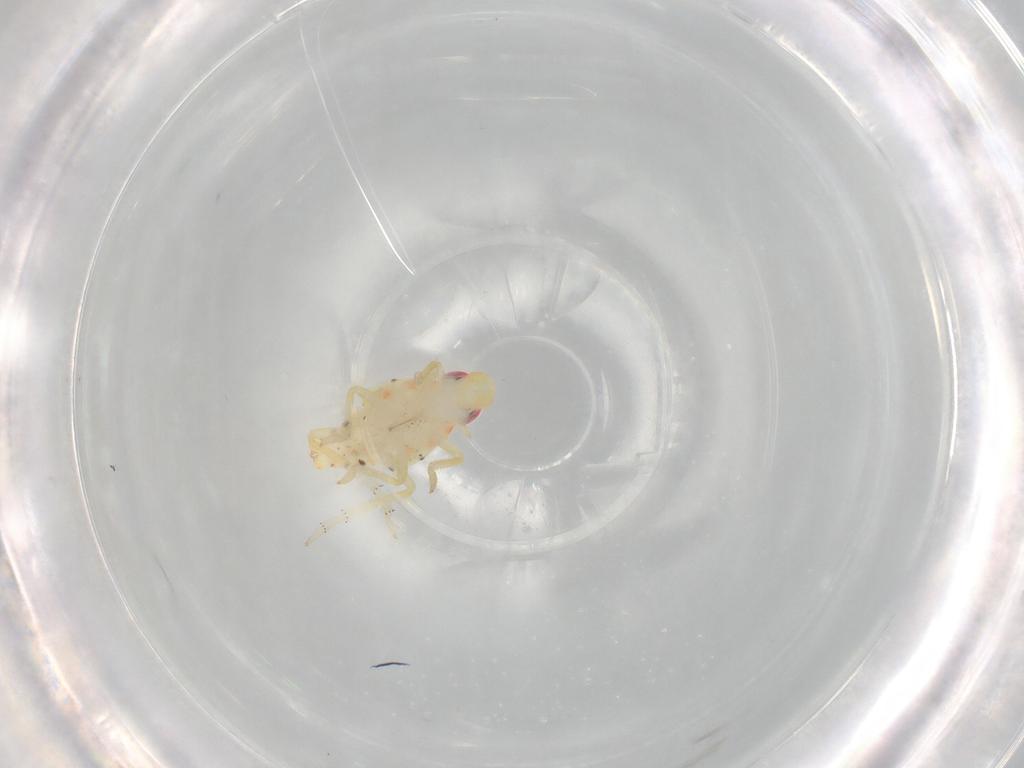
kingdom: Animalia
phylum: Arthropoda
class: Insecta
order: Hemiptera
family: Tropiduchidae
